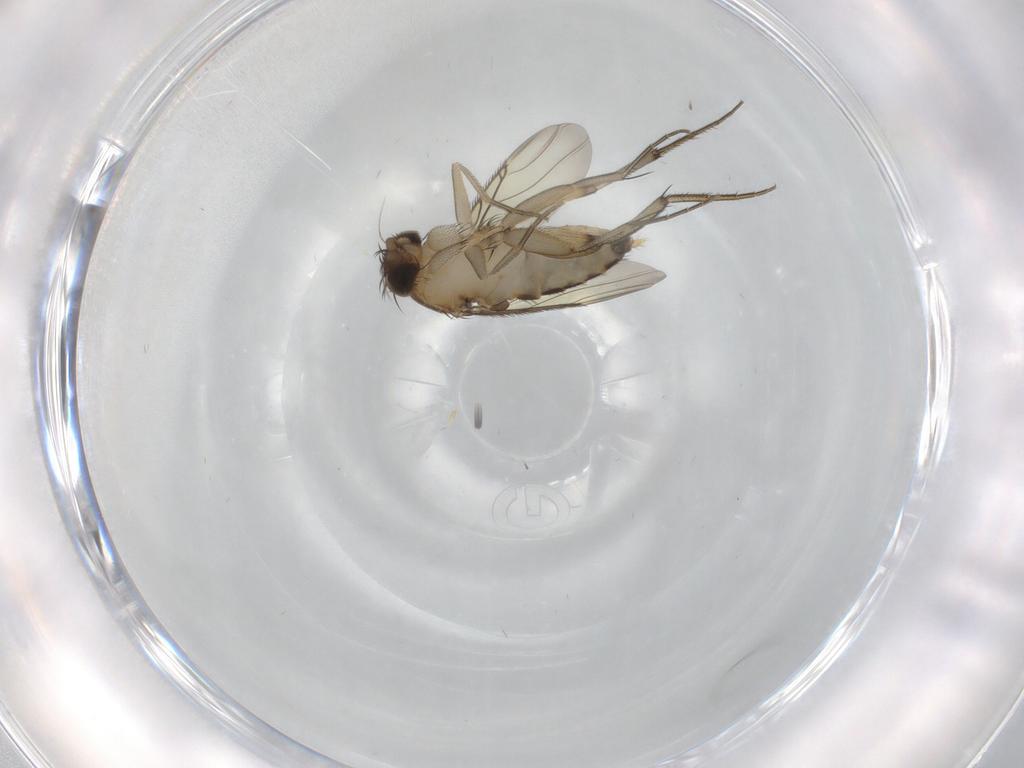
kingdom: Animalia
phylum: Arthropoda
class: Insecta
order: Diptera
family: Phoridae
